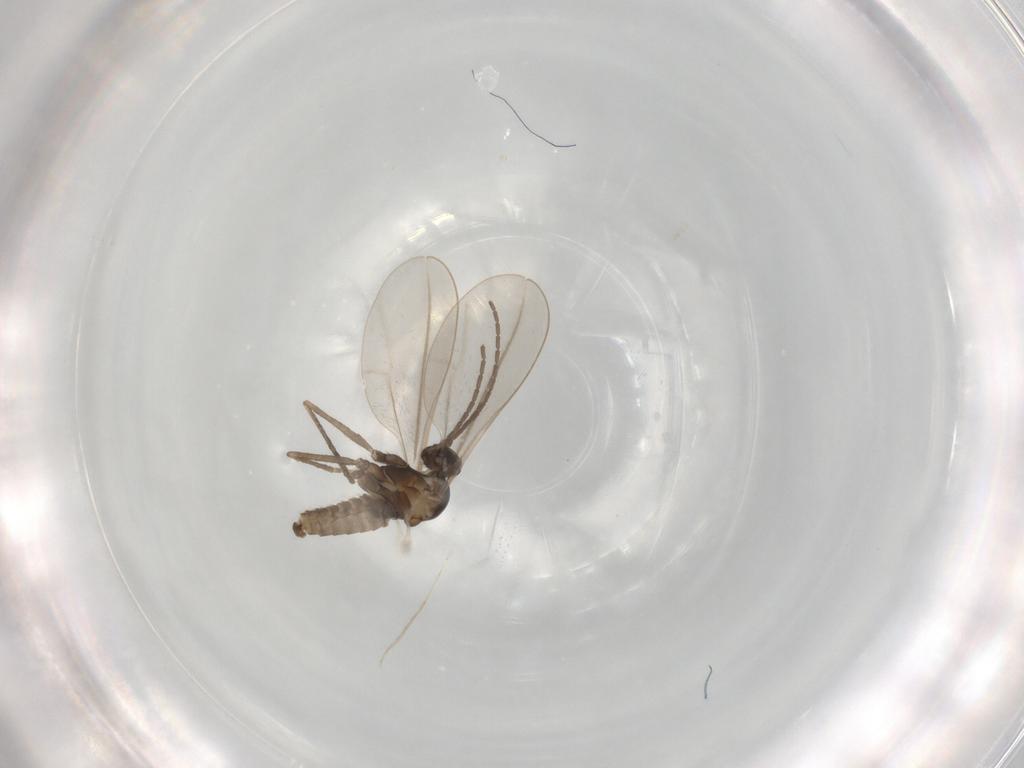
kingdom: Animalia
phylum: Arthropoda
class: Insecta
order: Diptera
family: Cecidomyiidae
